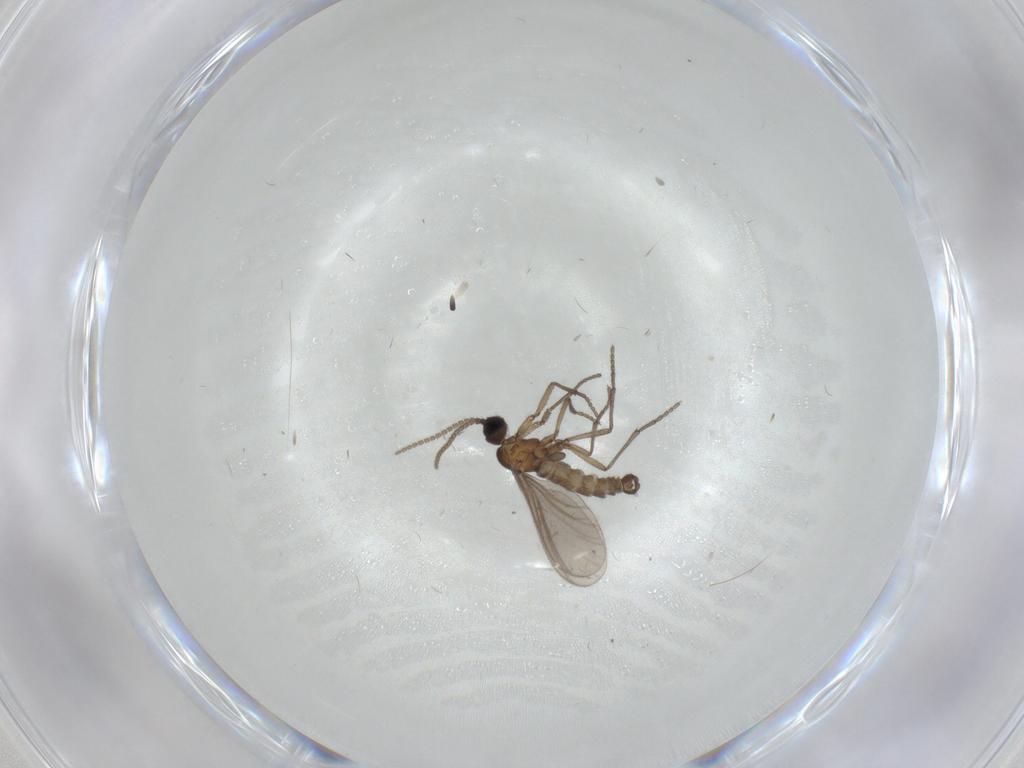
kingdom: Animalia
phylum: Arthropoda
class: Insecta
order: Diptera
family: Sciaridae
